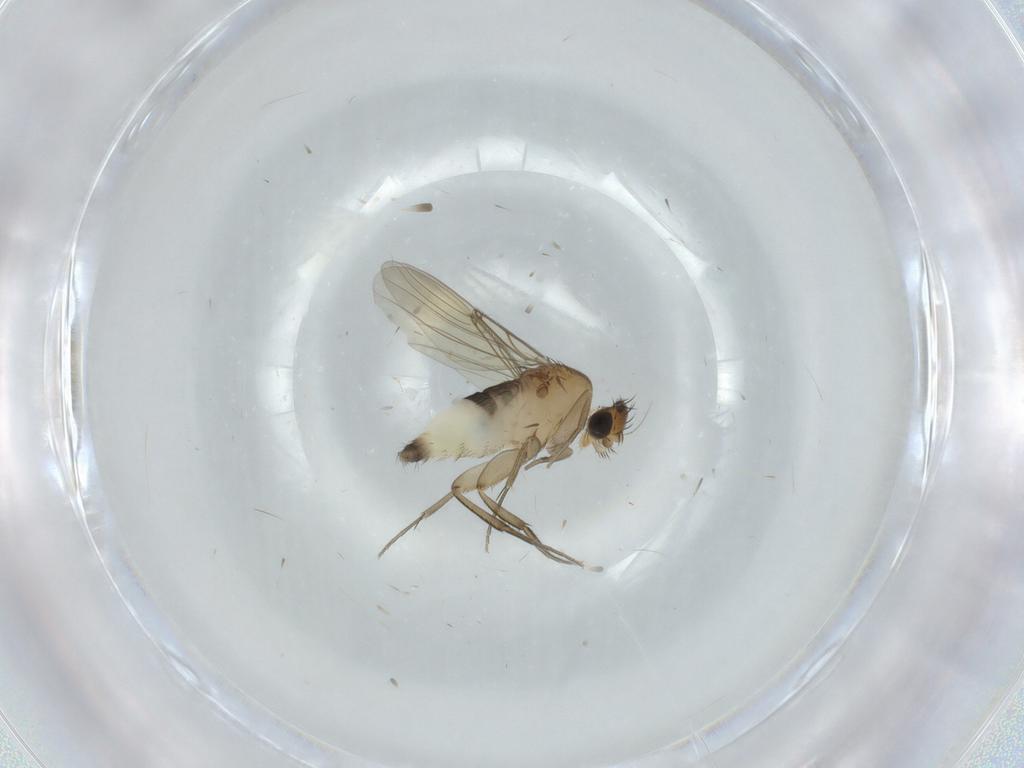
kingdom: Animalia
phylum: Arthropoda
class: Insecta
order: Diptera
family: Phoridae
